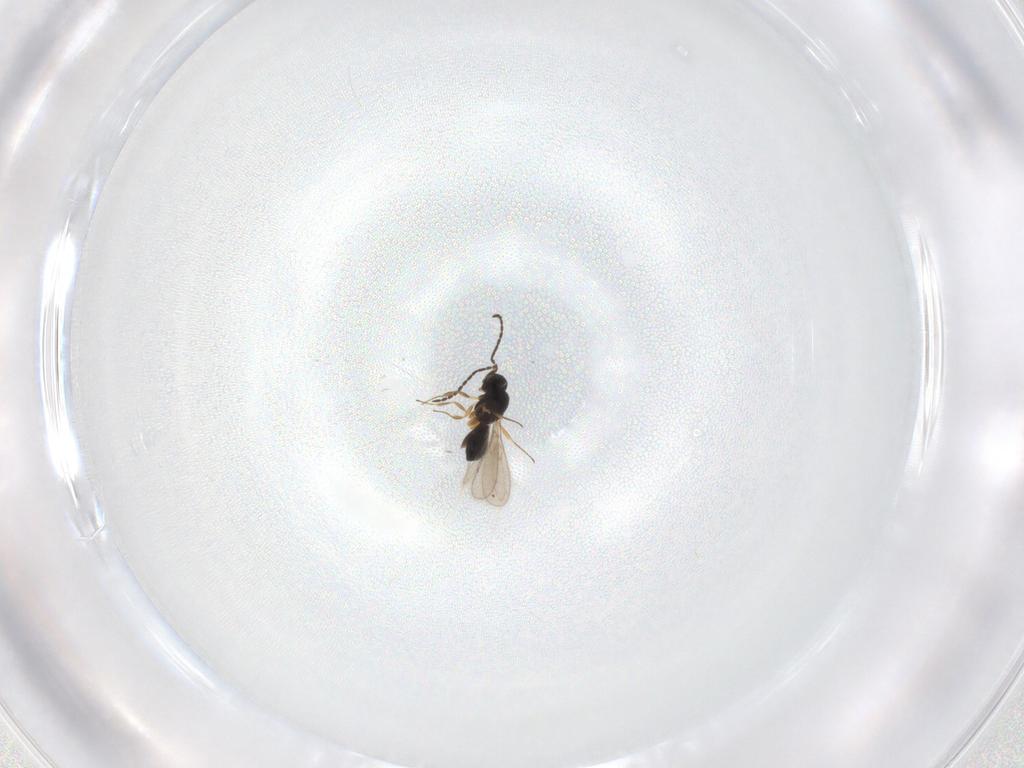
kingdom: Animalia
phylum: Arthropoda
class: Insecta
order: Hymenoptera
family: Scelionidae
